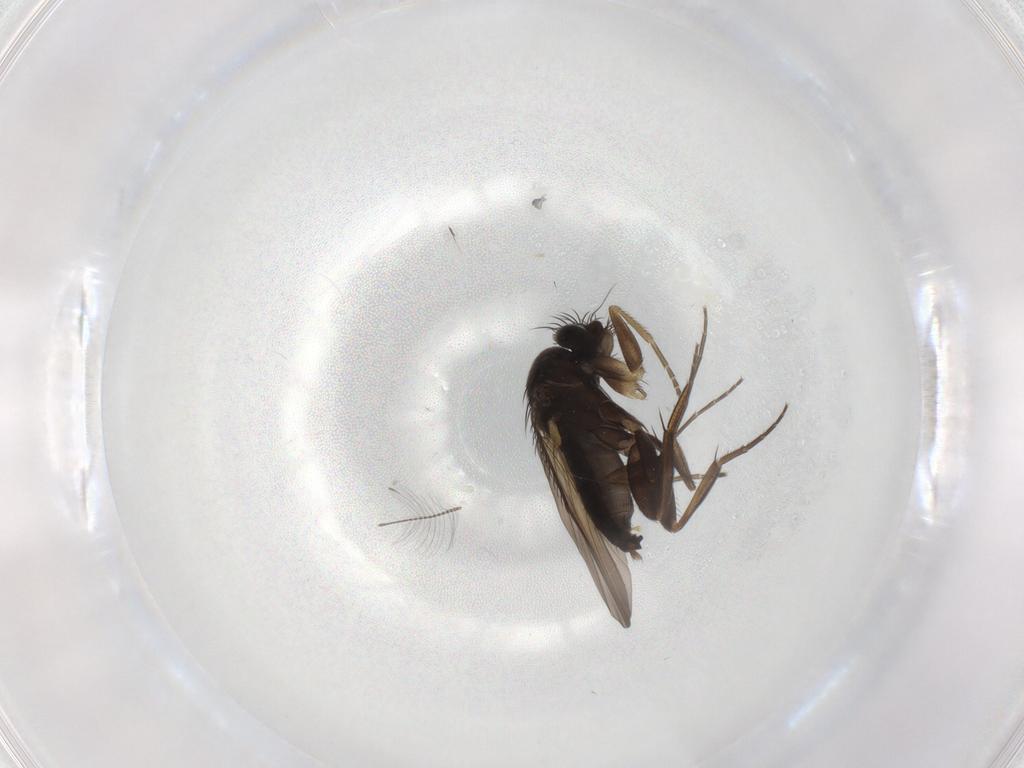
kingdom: Animalia
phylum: Arthropoda
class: Insecta
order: Diptera
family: Phoridae
